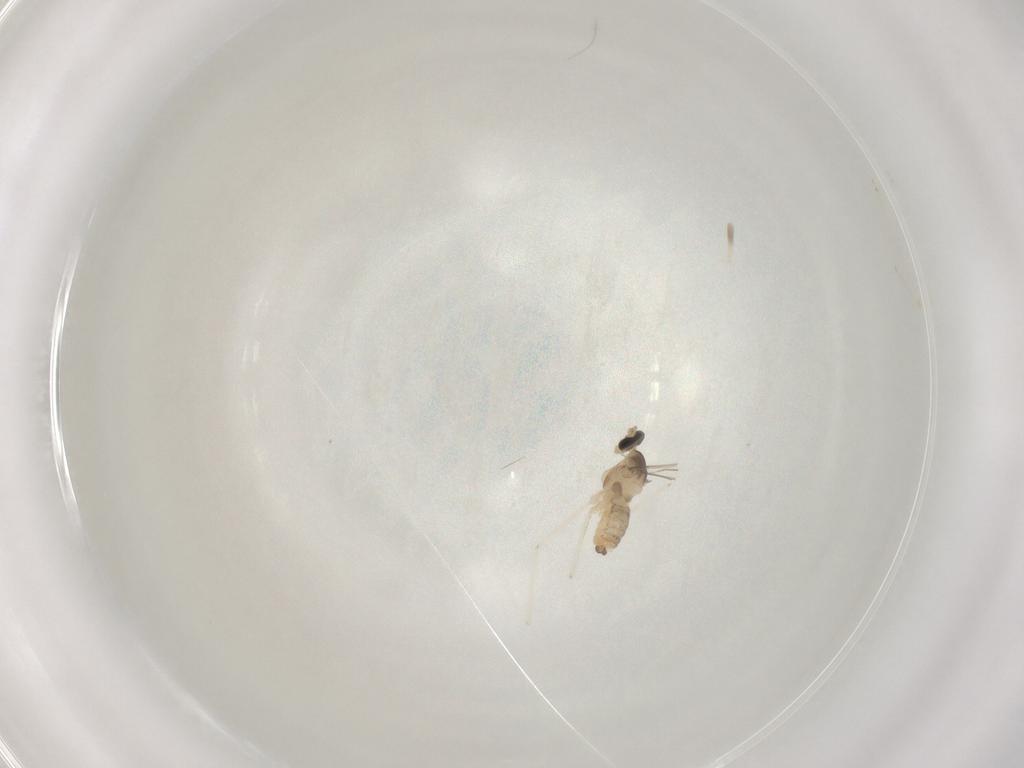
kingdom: Animalia
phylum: Arthropoda
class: Insecta
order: Diptera
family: Cecidomyiidae
